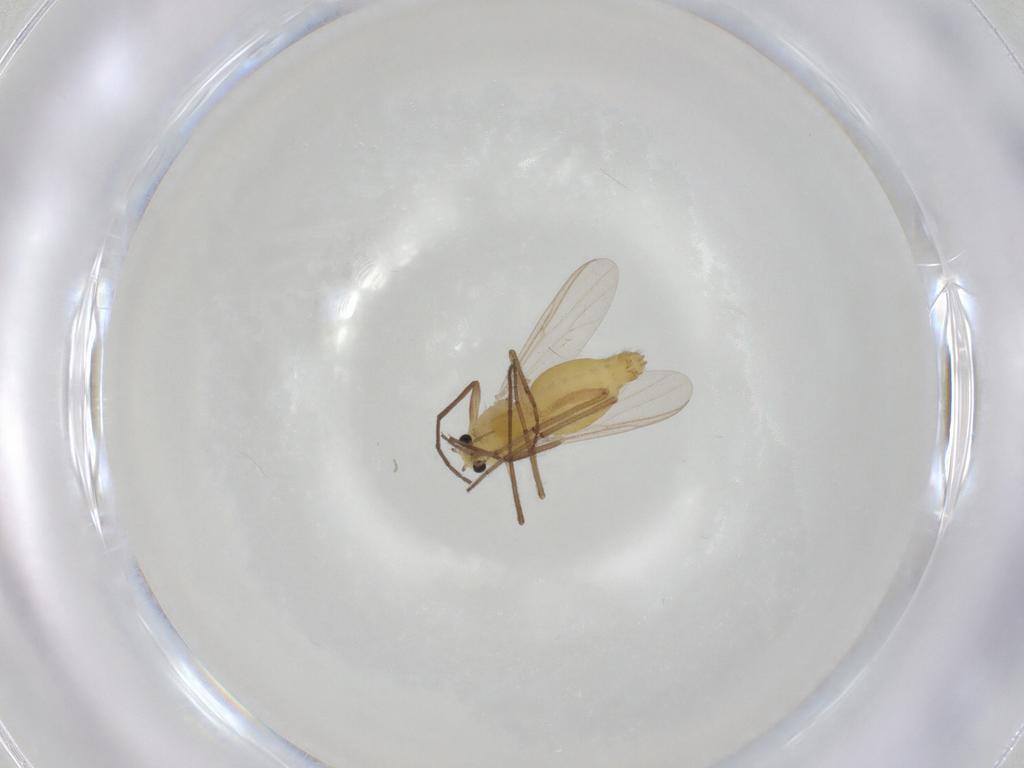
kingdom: Animalia
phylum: Arthropoda
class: Insecta
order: Diptera
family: Chironomidae
